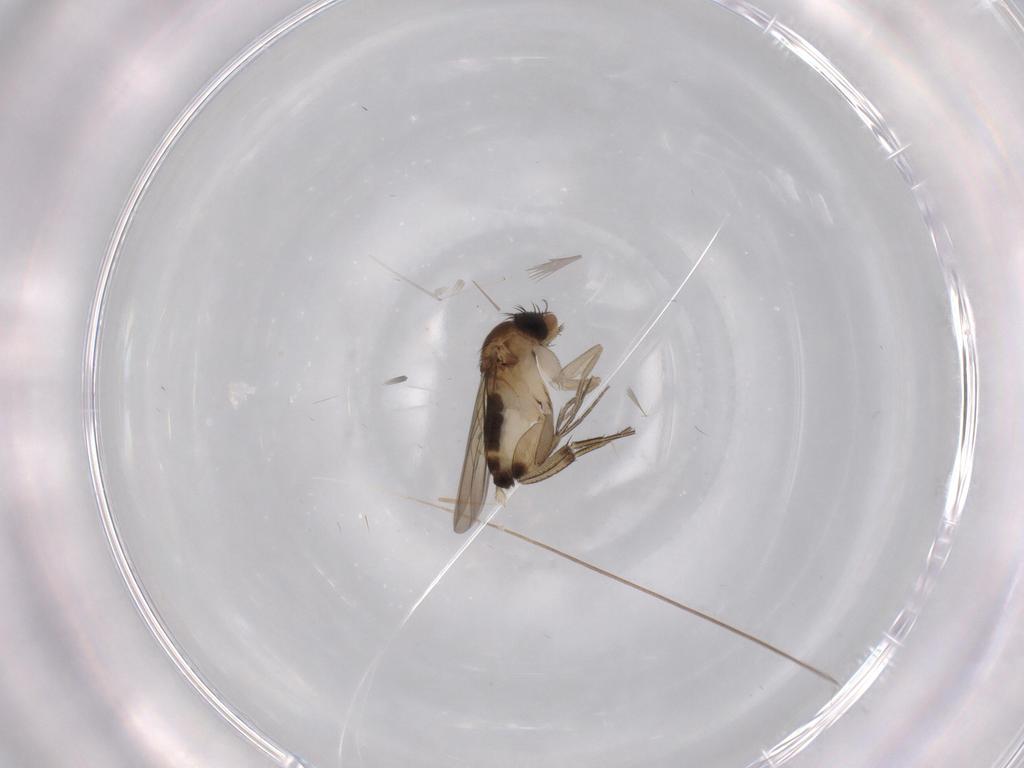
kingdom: Animalia
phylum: Arthropoda
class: Insecta
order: Diptera
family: Phoridae
